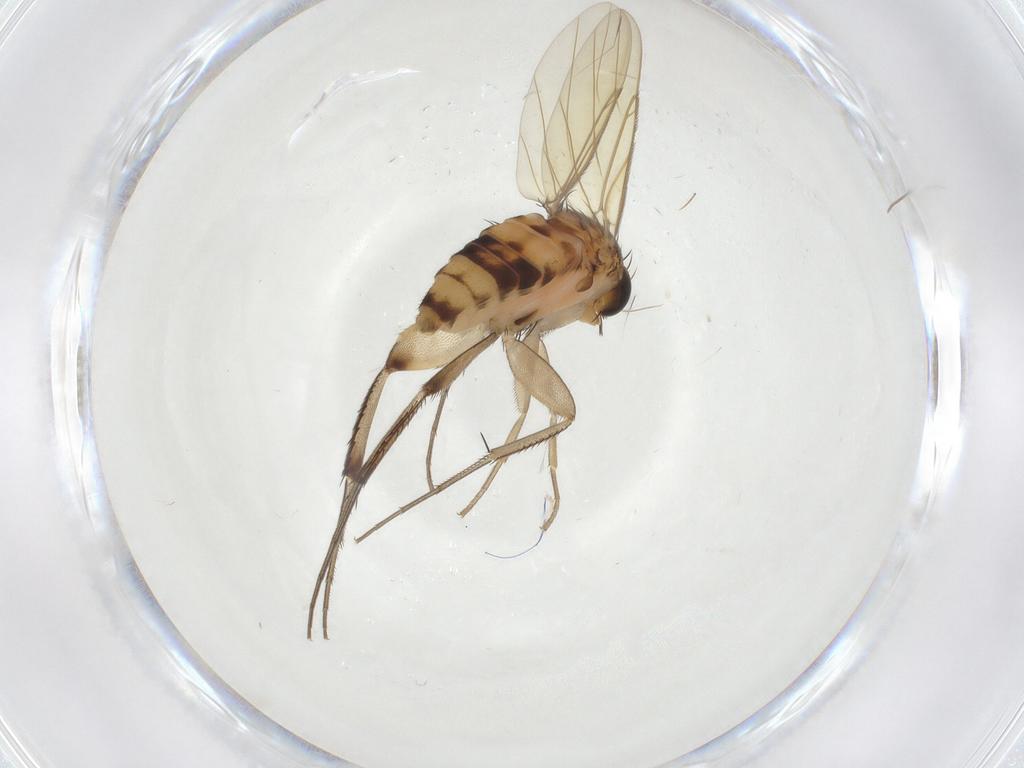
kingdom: Animalia
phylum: Arthropoda
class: Insecta
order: Diptera
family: Phoridae
